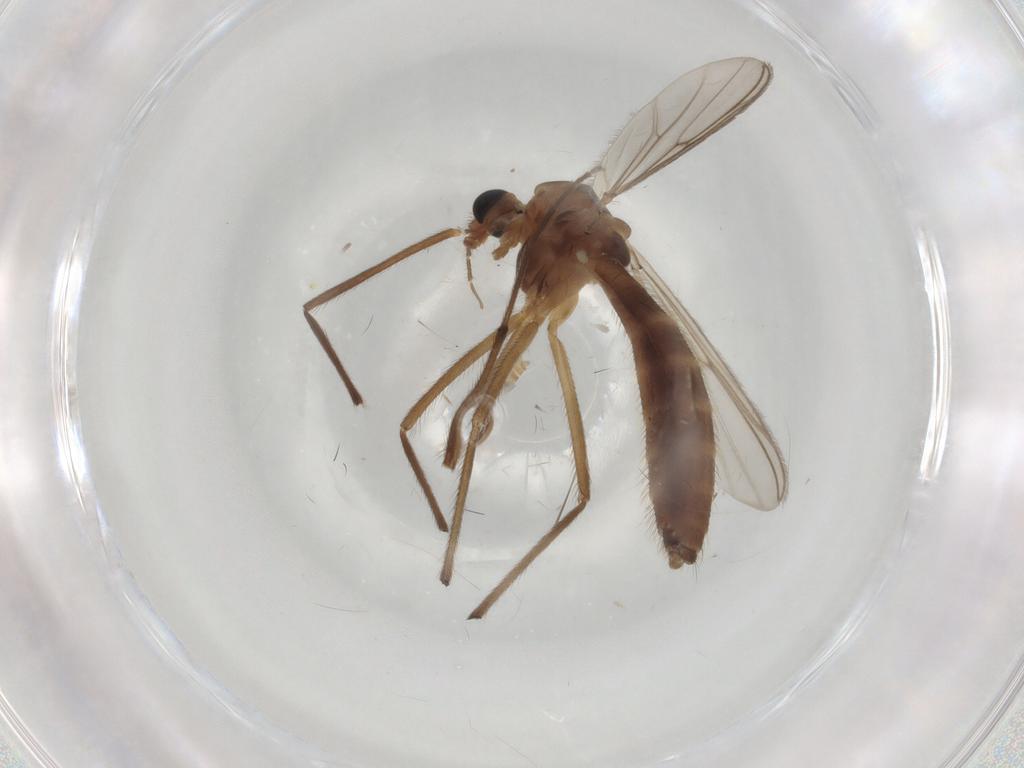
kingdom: Animalia
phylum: Arthropoda
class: Insecta
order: Diptera
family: Chironomidae
